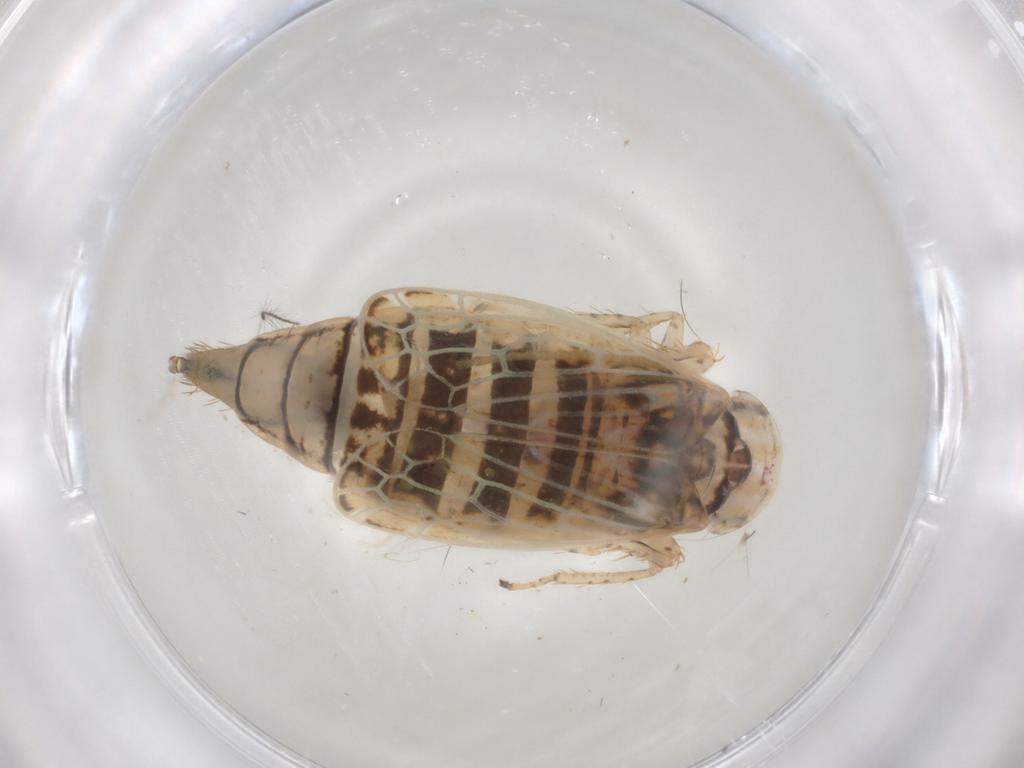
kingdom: Animalia
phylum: Arthropoda
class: Insecta
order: Hemiptera
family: Cicadellidae
